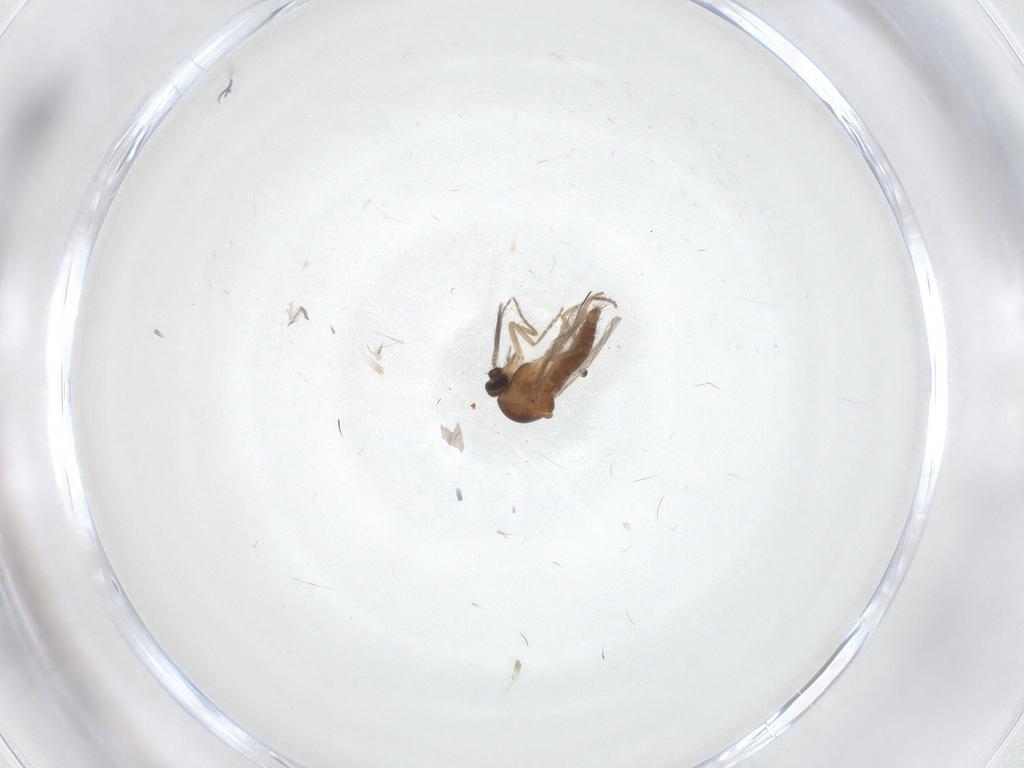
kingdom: Animalia
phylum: Arthropoda
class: Insecta
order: Diptera
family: Ceratopogonidae
